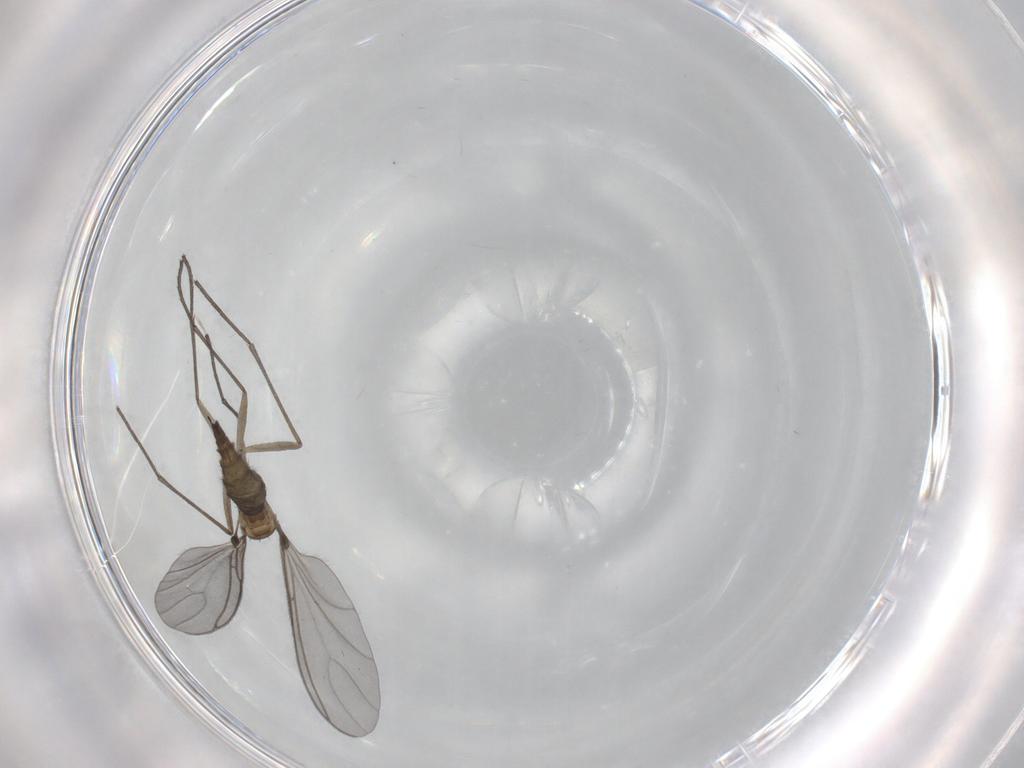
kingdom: Animalia
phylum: Arthropoda
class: Insecta
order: Diptera
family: Sciaridae
